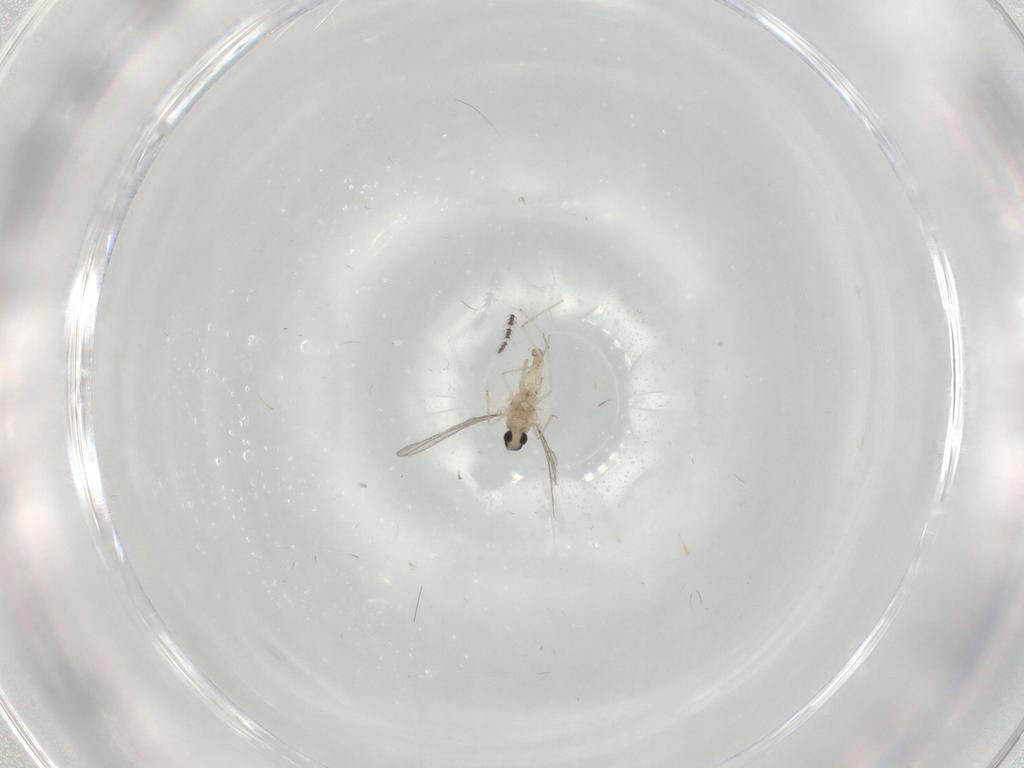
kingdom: Animalia
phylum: Arthropoda
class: Insecta
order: Diptera
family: Cecidomyiidae
